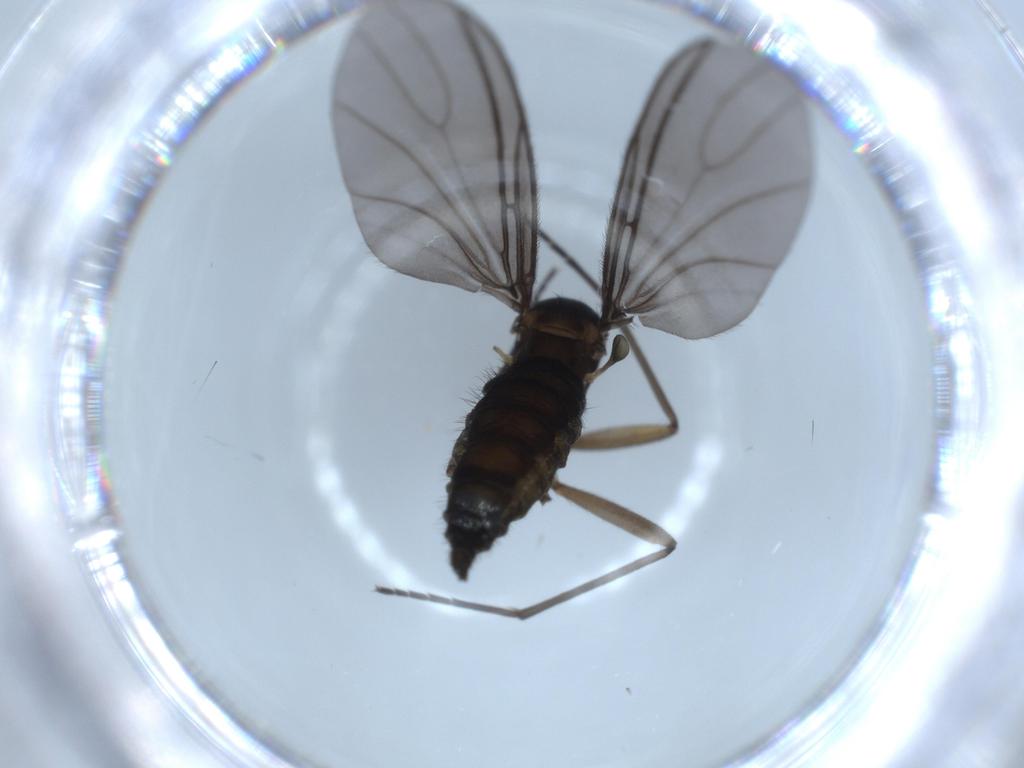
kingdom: Animalia
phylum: Arthropoda
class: Insecta
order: Diptera
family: Sciaridae
